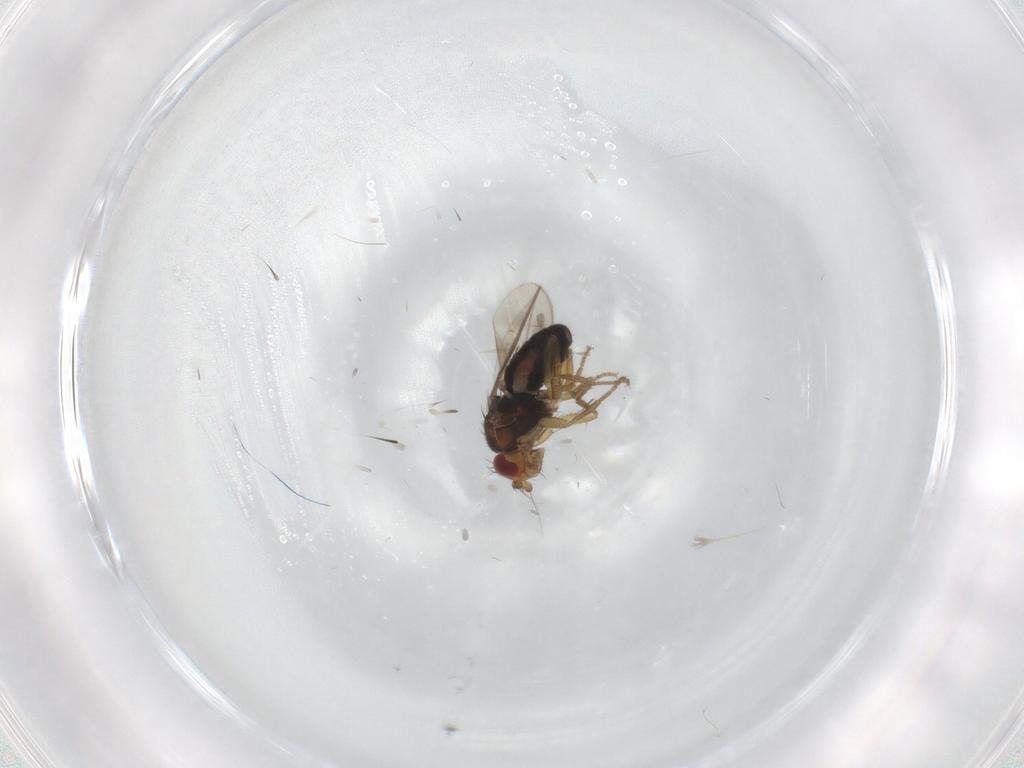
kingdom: Animalia
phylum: Arthropoda
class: Insecta
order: Diptera
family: Sphaeroceridae
